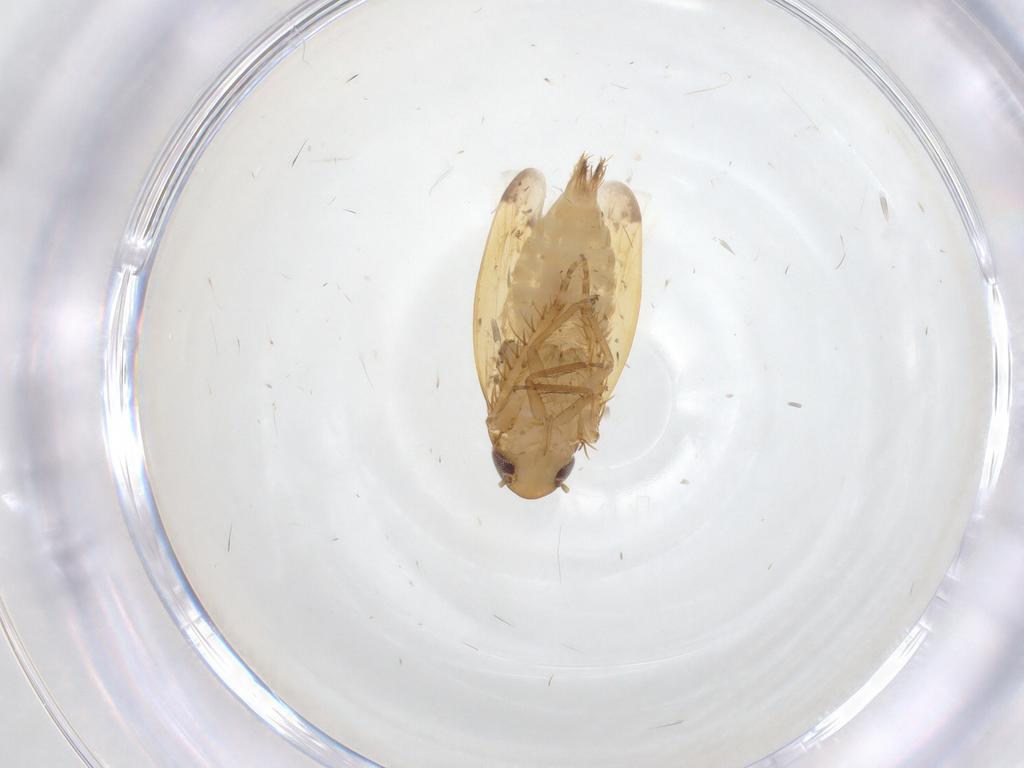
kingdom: Animalia
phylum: Arthropoda
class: Insecta
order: Hemiptera
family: Cicadellidae
